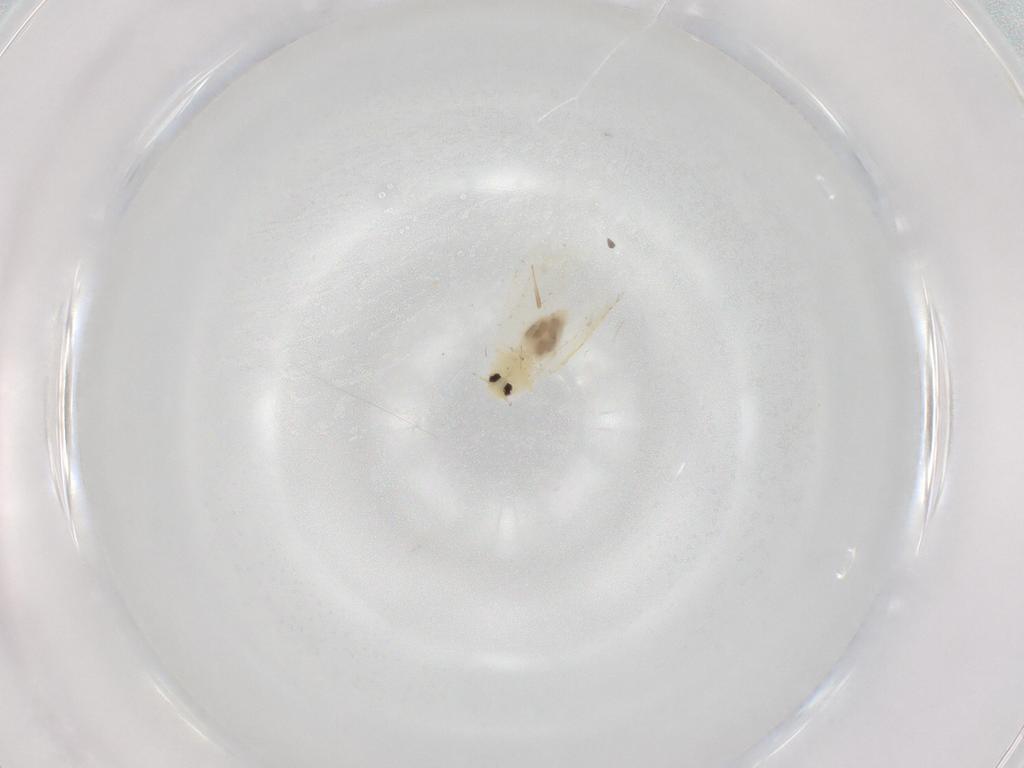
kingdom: Animalia
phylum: Arthropoda
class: Insecta
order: Hemiptera
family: Aleyrodidae
